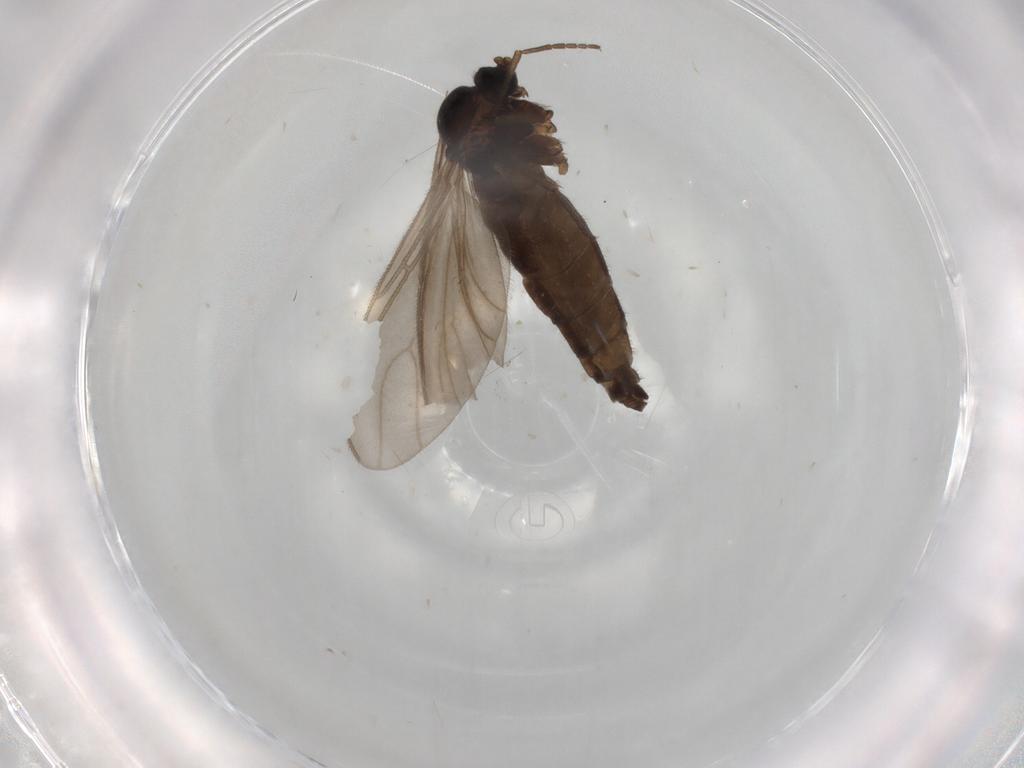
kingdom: Animalia
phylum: Arthropoda
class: Insecta
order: Diptera
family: Sciaridae
